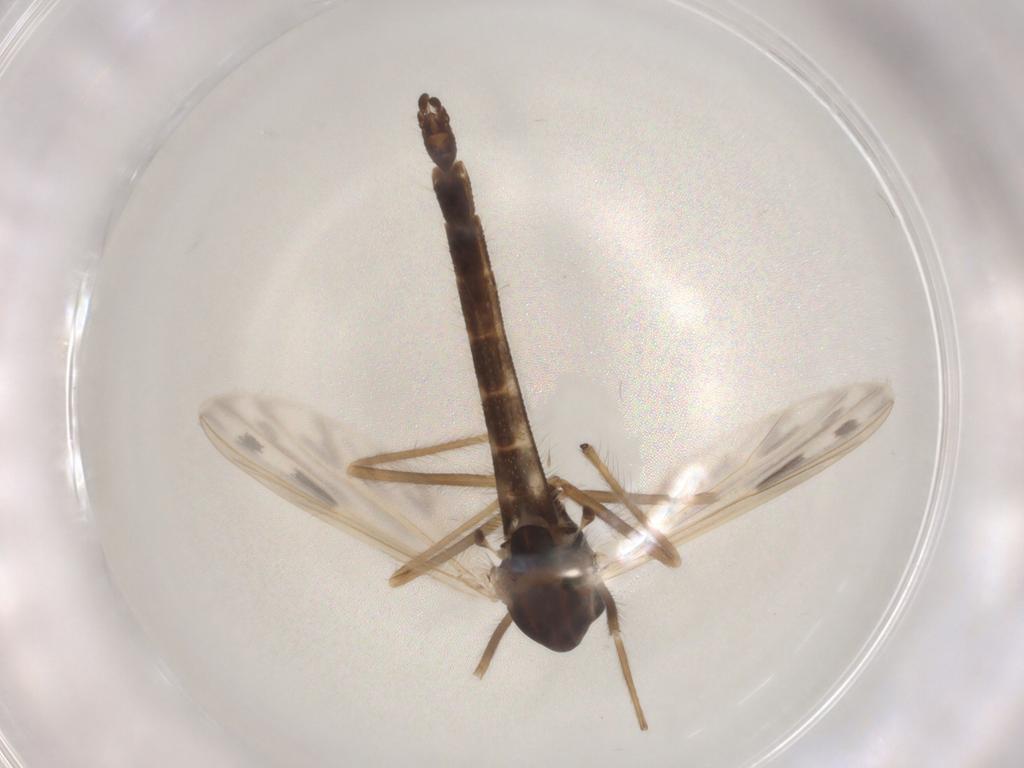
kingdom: Animalia
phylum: Arthropoda
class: Insecta
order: Diptera
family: Chironomidae
